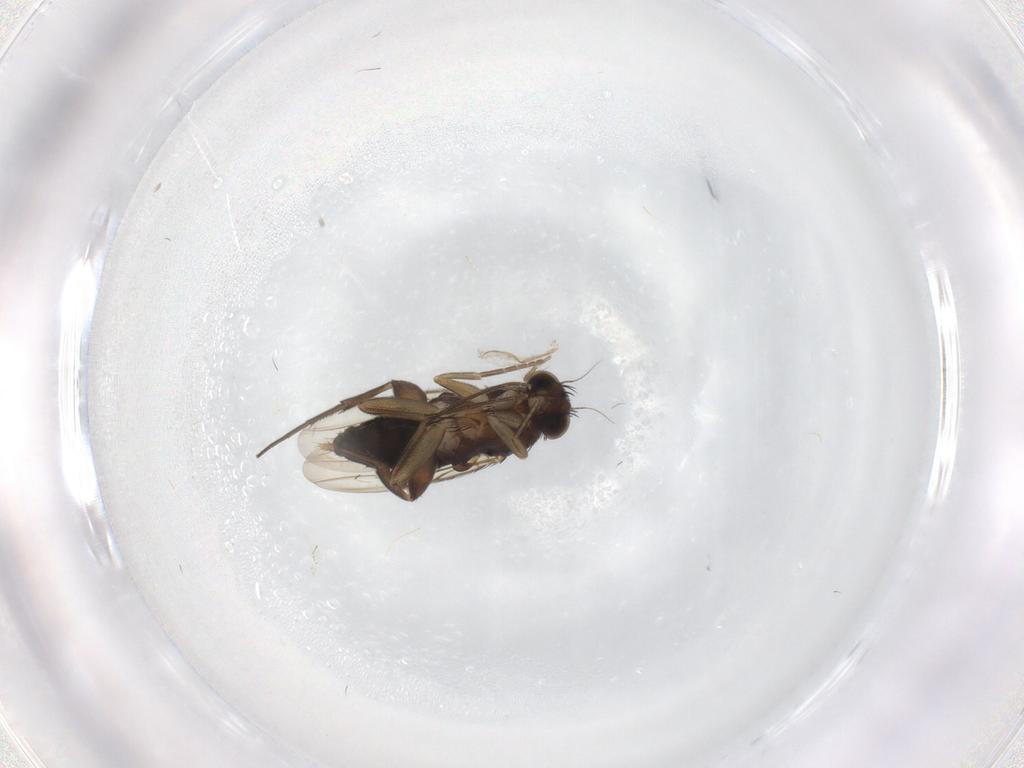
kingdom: Animalia
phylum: Arthropoda
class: Insecta
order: Diptera
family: Phoridae
